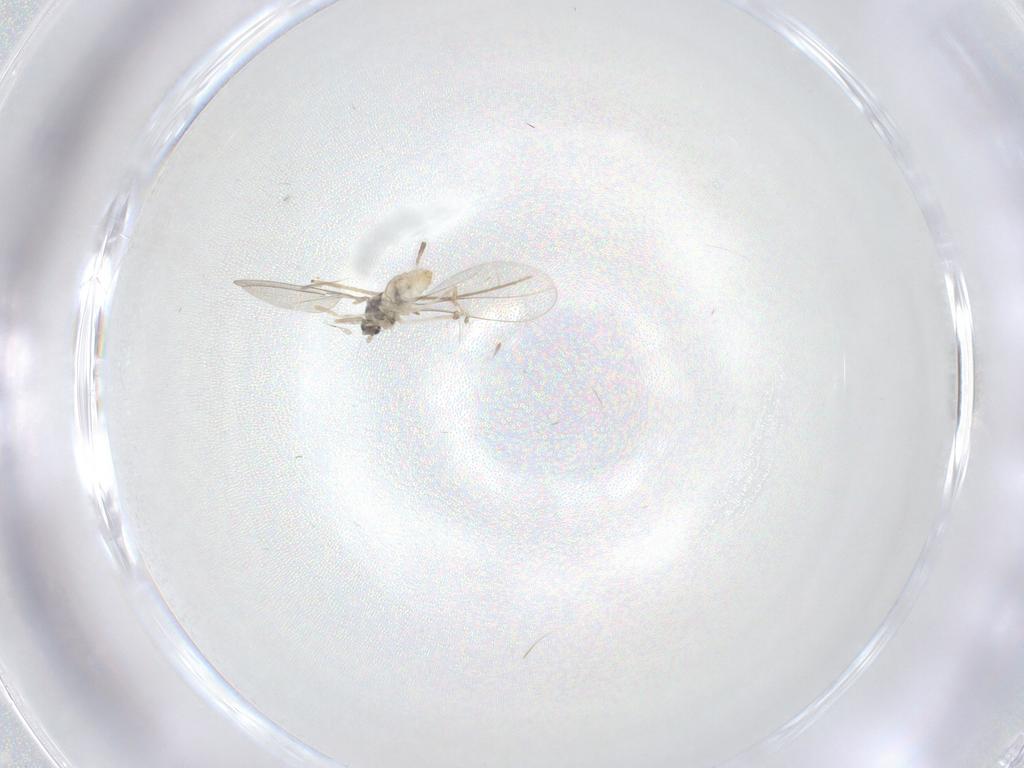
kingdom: Animalia
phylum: Arthropoda
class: Insecta
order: Diptera
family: Cecidomyiidae
